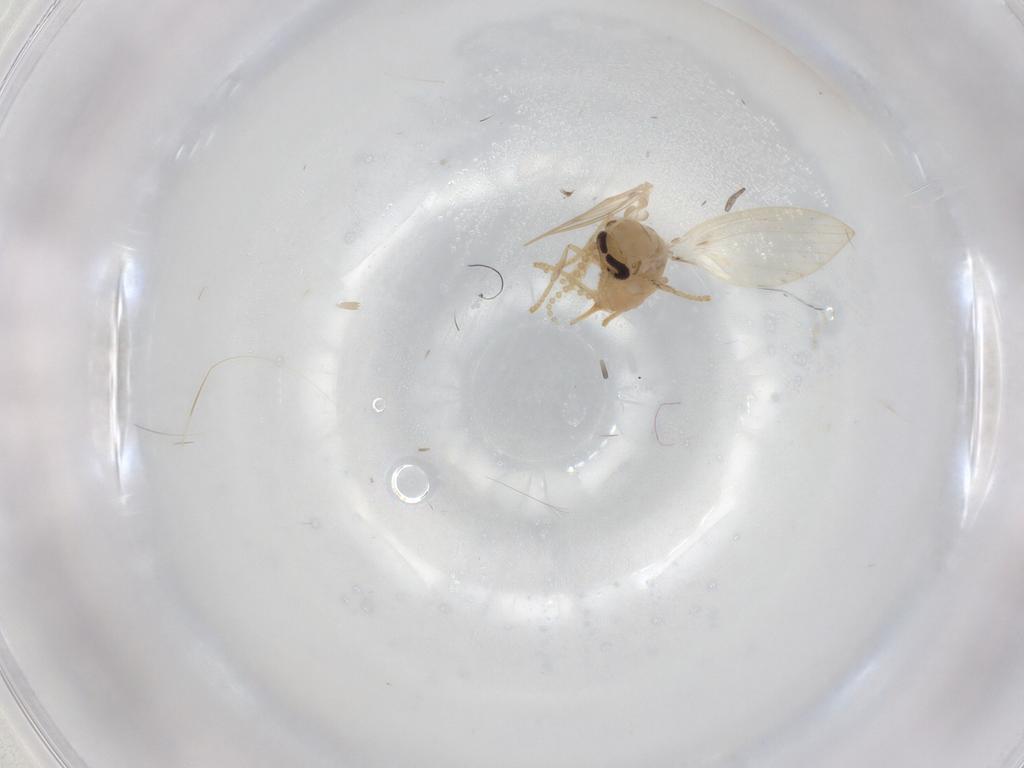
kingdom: Animalia
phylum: Arthropoda
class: Insecta
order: Diptera
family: Psychodidae
